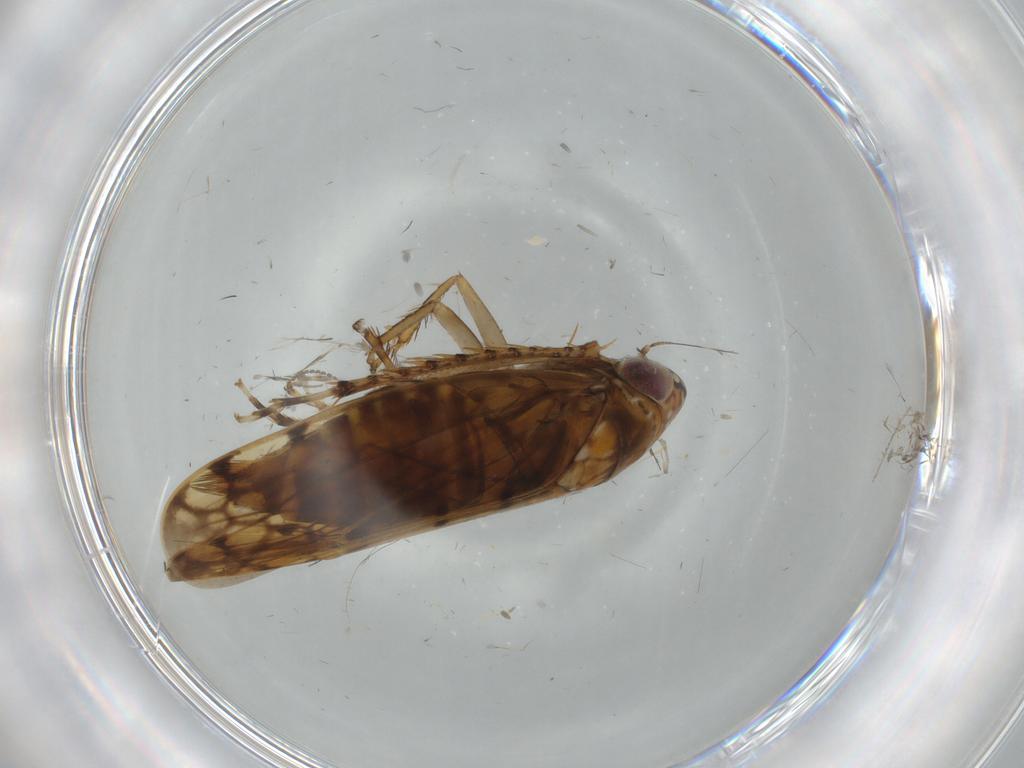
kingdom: Animalia
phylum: Arthropoda
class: Insecta
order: Hemiptera
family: Cicadellidae
